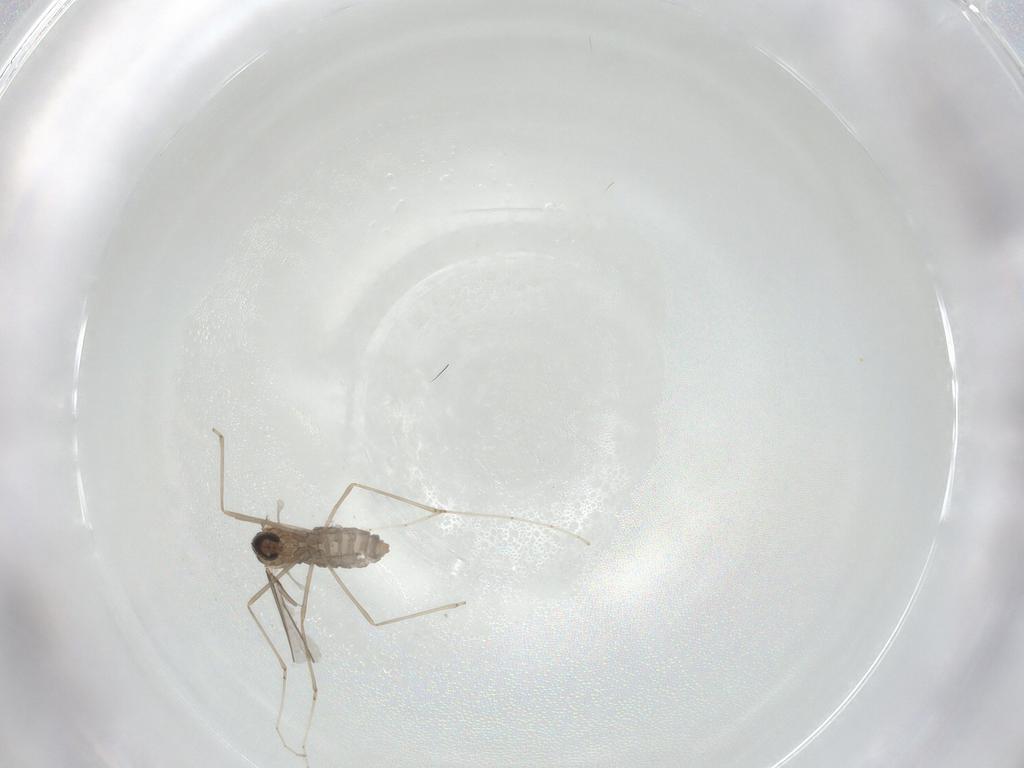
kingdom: Animalia
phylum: Arthropoda
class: Insecta
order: Diptera
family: Cecidomyiidae
